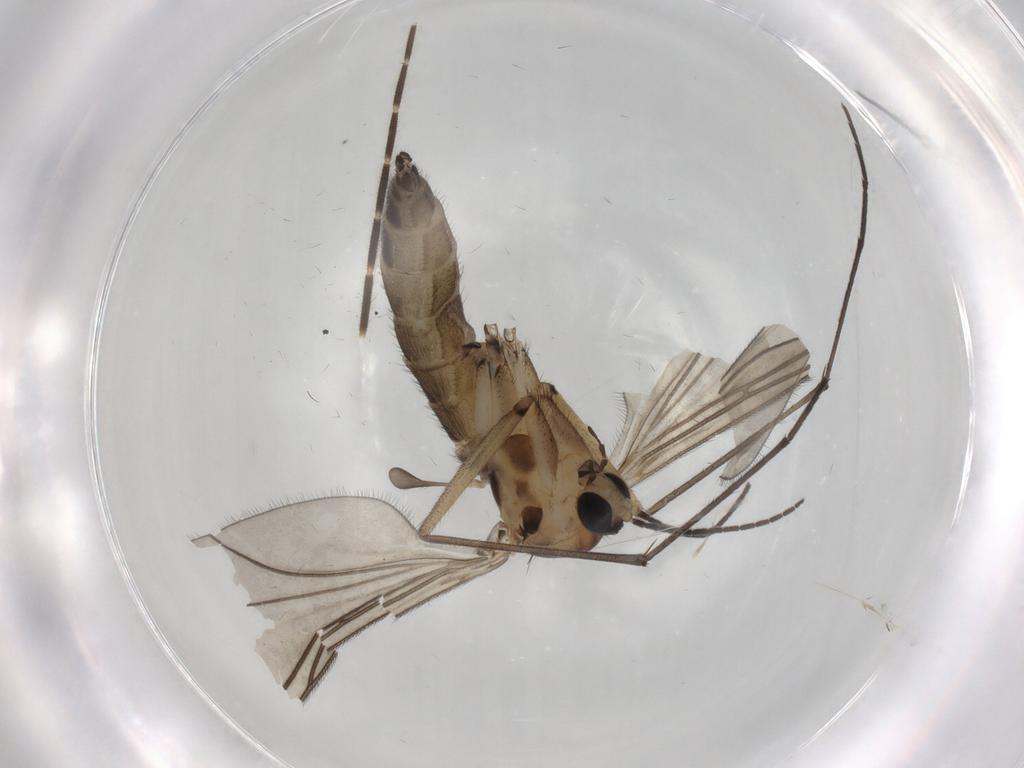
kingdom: Animalia
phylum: Arthropoda
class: Insecta
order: Diptera
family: Sciaridae
